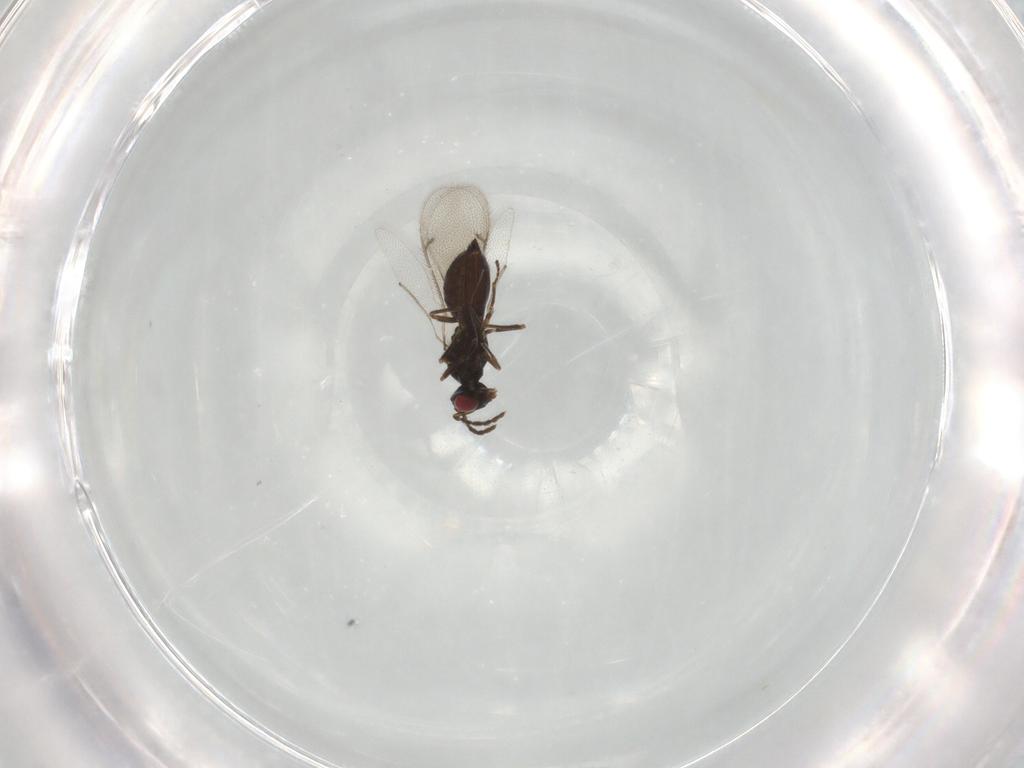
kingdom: Animalia
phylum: Arthropoda
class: Insecta
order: Hymenoptera
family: Eulophidae
